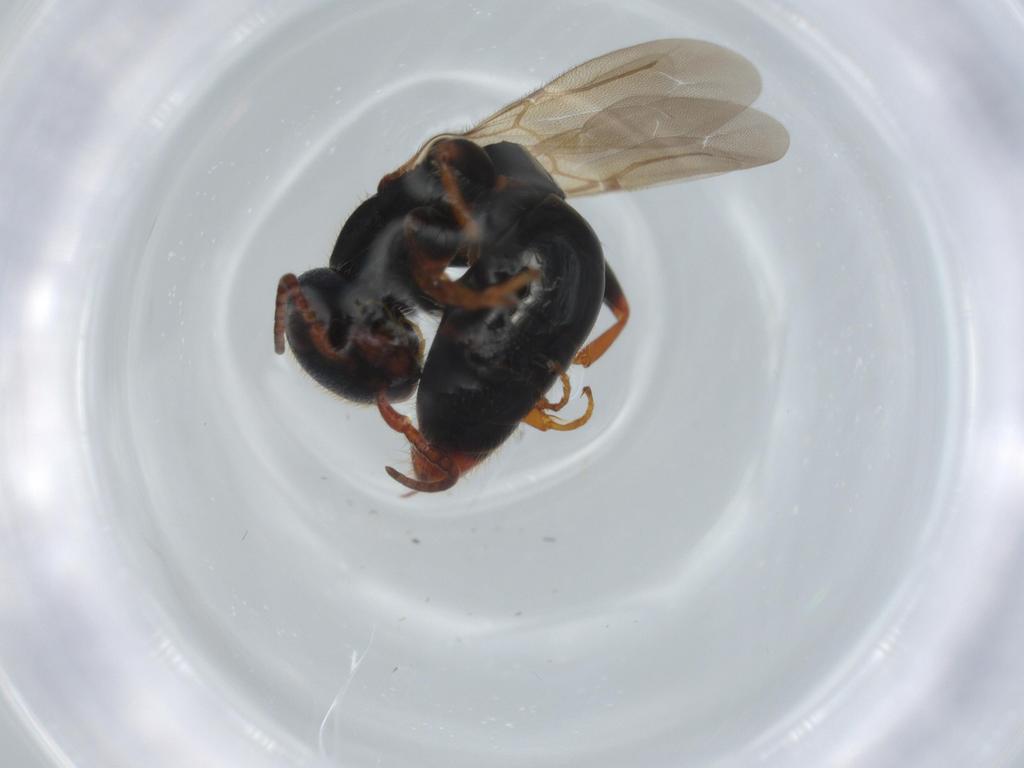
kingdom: Animalia
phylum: Arthropoda
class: Insecta
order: Hymenoptera
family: Bethylidae
